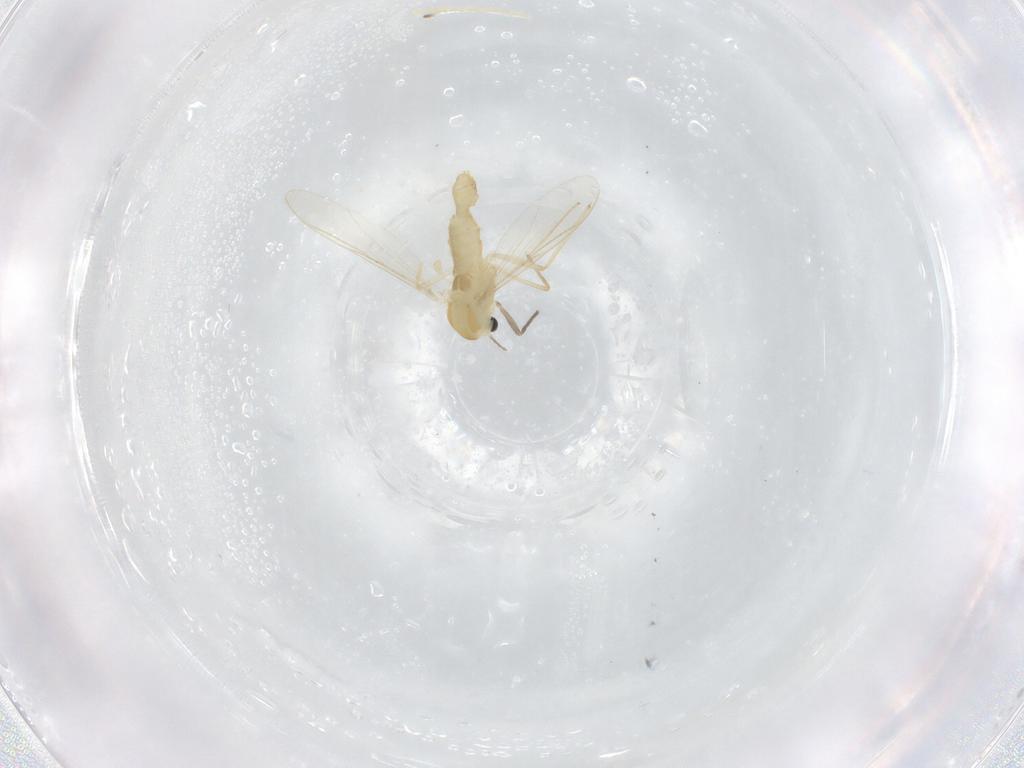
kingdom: Animalia
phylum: Arthropoda
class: Insecta
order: Diptera
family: Chironomidae
